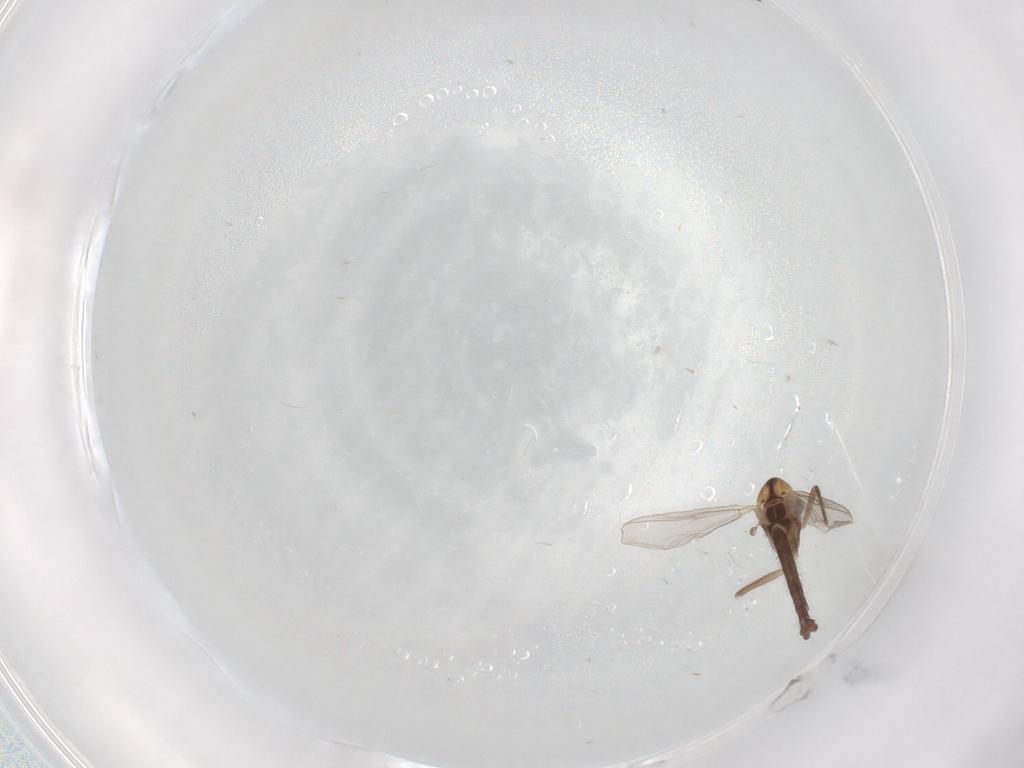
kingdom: Animalia
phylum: Arthropoda
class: Insecta
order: Diptera
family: Chironomidae
